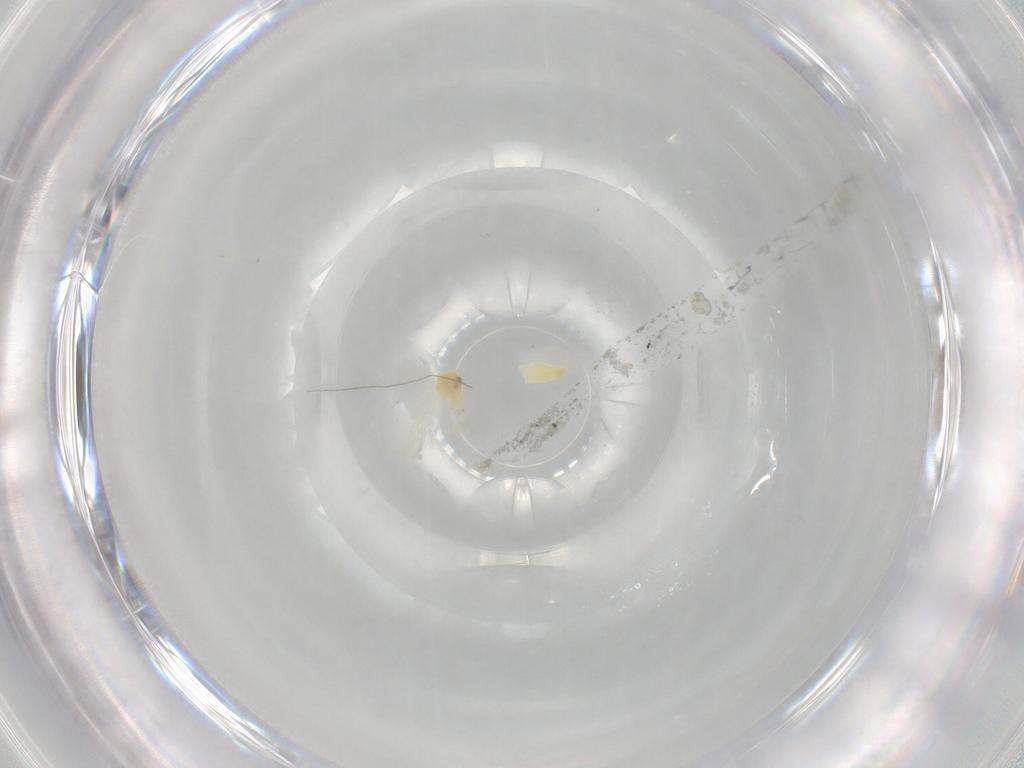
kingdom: Animalia
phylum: Arthropoda
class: Insecta
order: Hemiptera
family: Aleyrodidae
